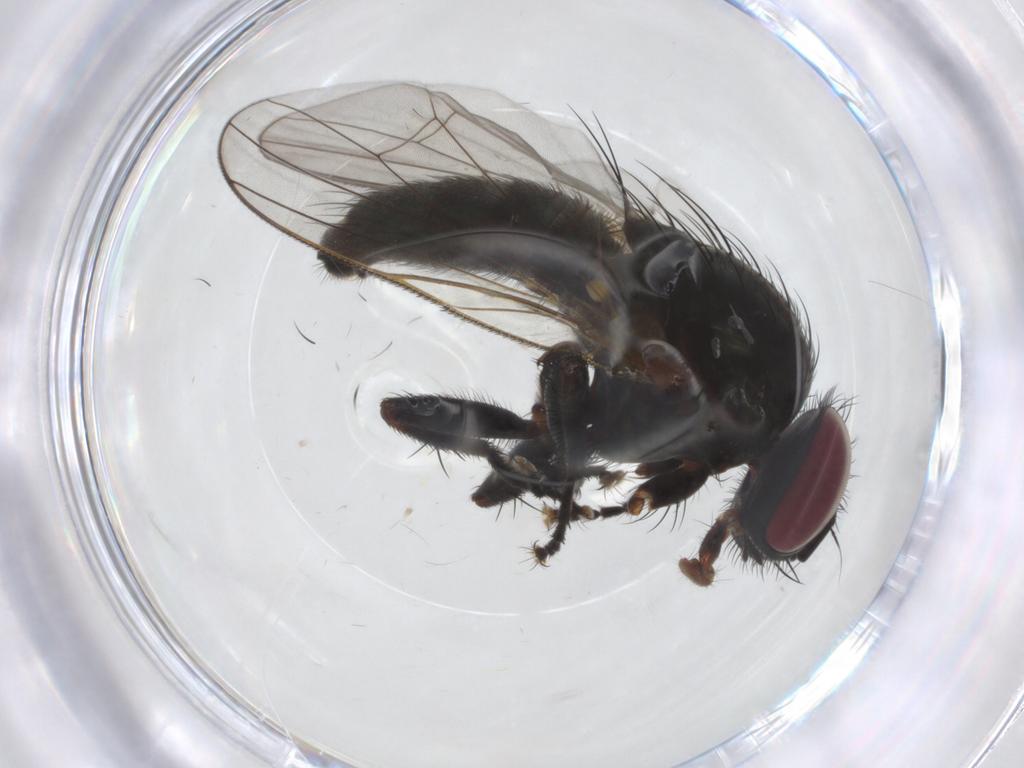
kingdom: Animalia
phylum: Arthropoda
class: Insecta
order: Diptera
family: Fannia
